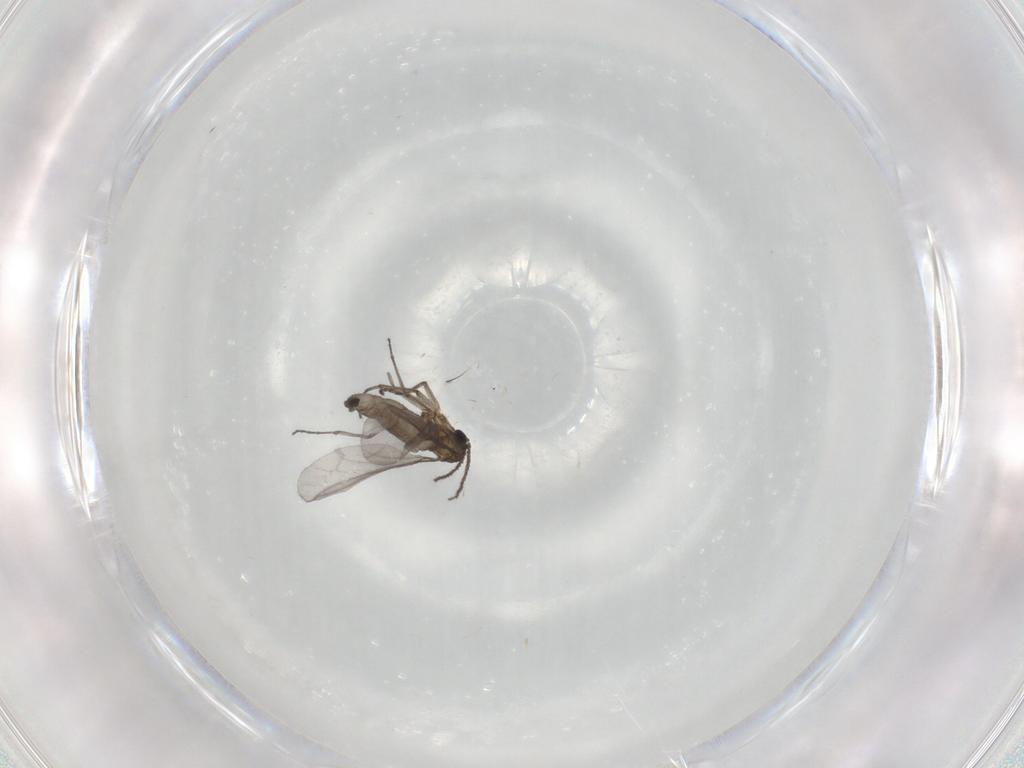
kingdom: Animalia
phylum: Arthropoda
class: Insecta
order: Diptera
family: Sciaridae
